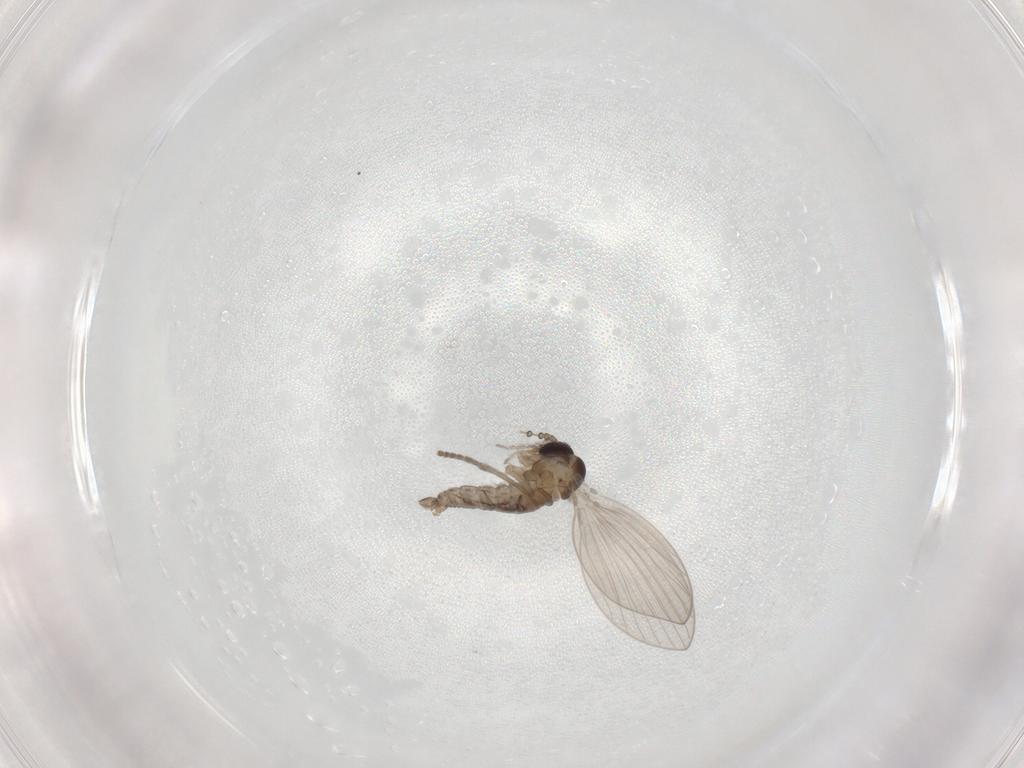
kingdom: Animalia
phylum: Arthropoda
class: Insecta
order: Diptera
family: Psychodidae
